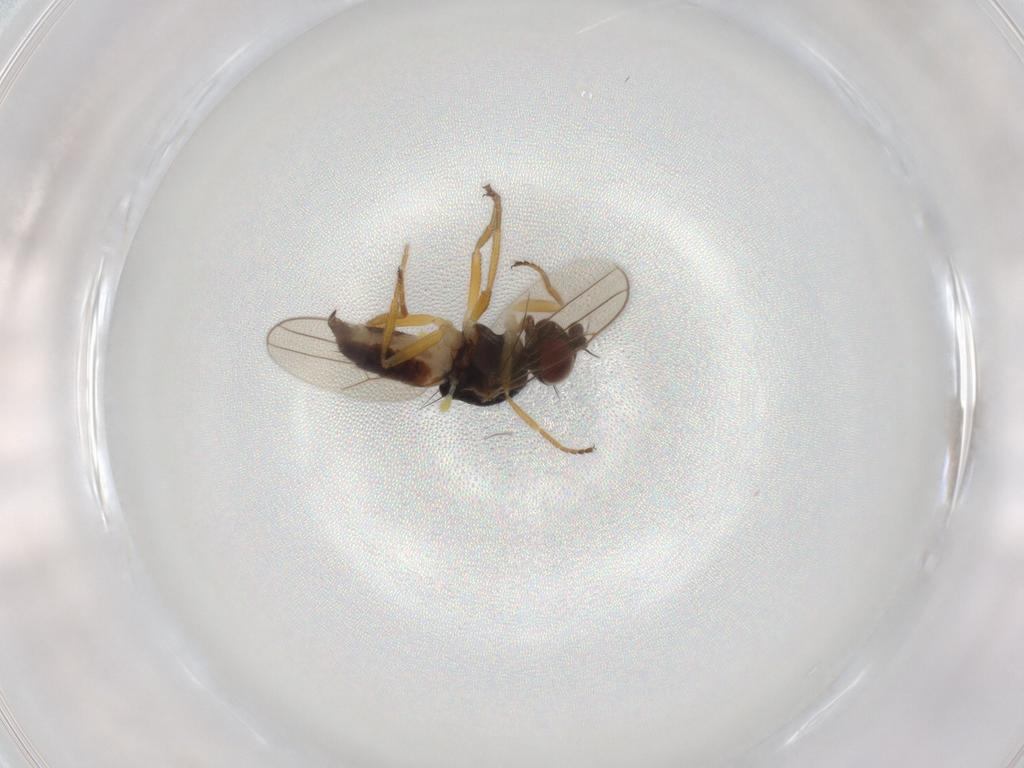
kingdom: Animalia
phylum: Arthropoda
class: Insecta
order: Diptera
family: Chloropidae
